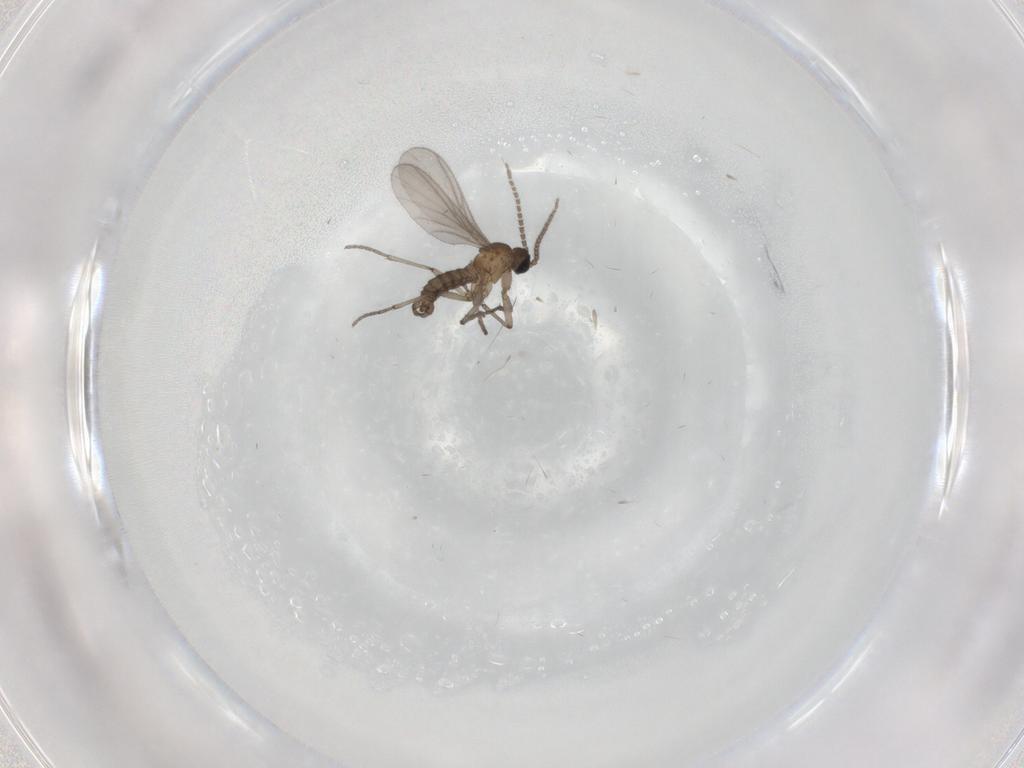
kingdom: Animalia
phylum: Arthropoda
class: Insecta
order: Diptera
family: Sciaridae
